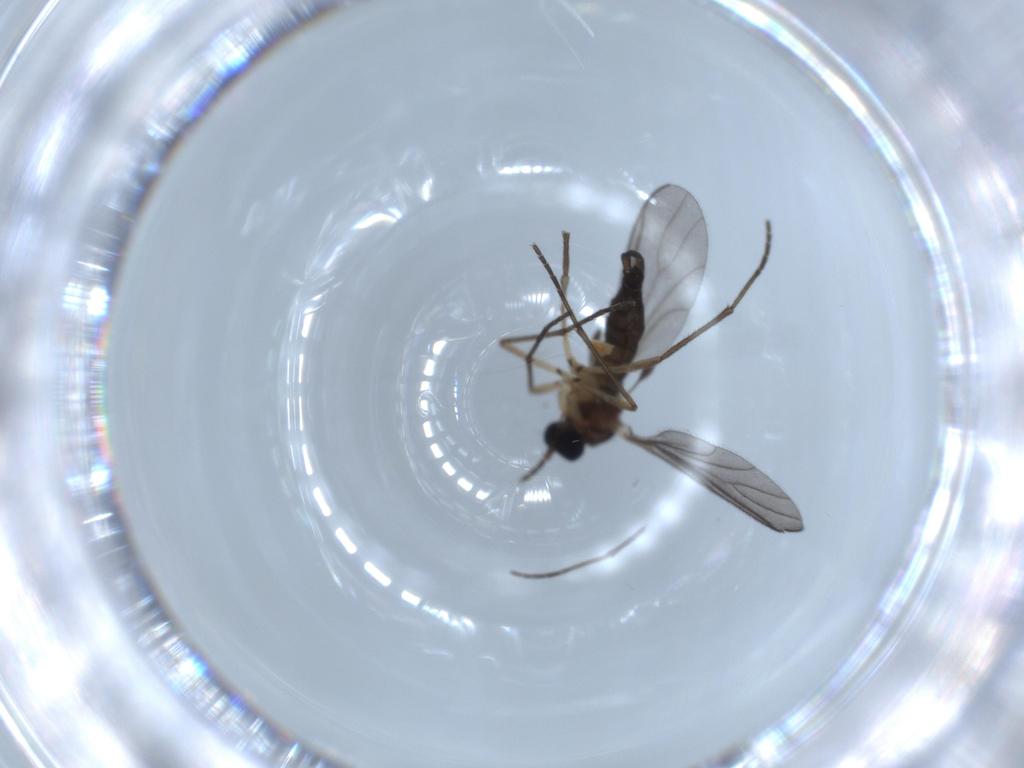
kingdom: Animalia
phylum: Arthropoda
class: Insecta
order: Diptera
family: Sciaridae
